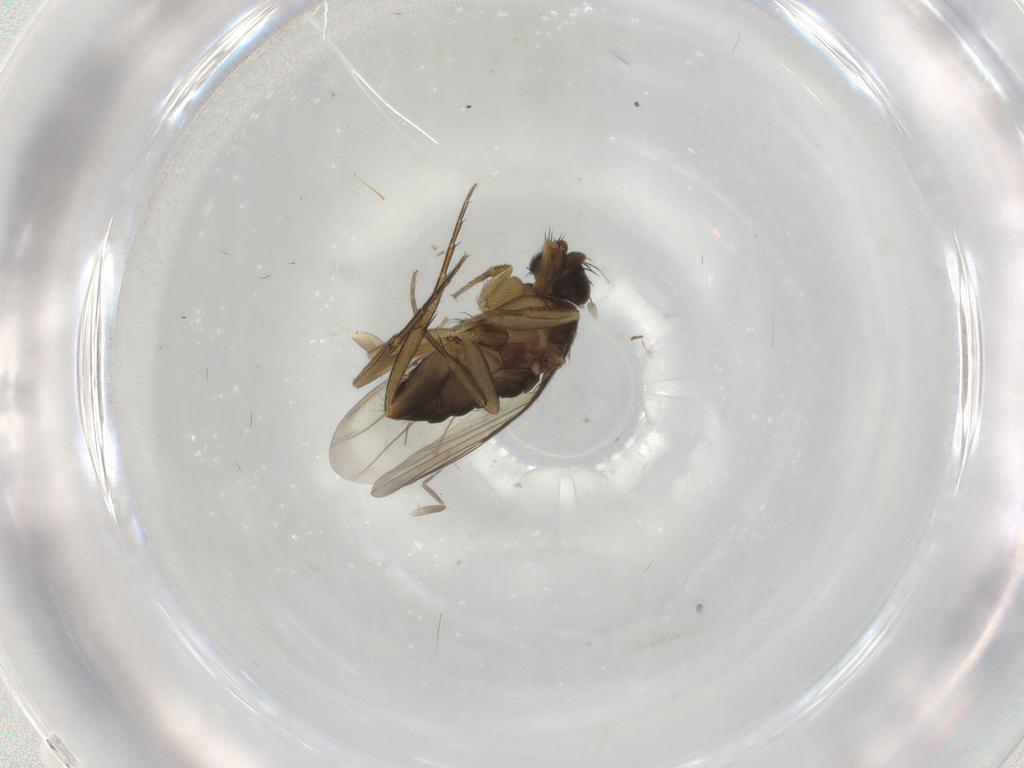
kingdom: Animalia
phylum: Arthropoda
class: Insecta
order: Diptera
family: Phoridae
